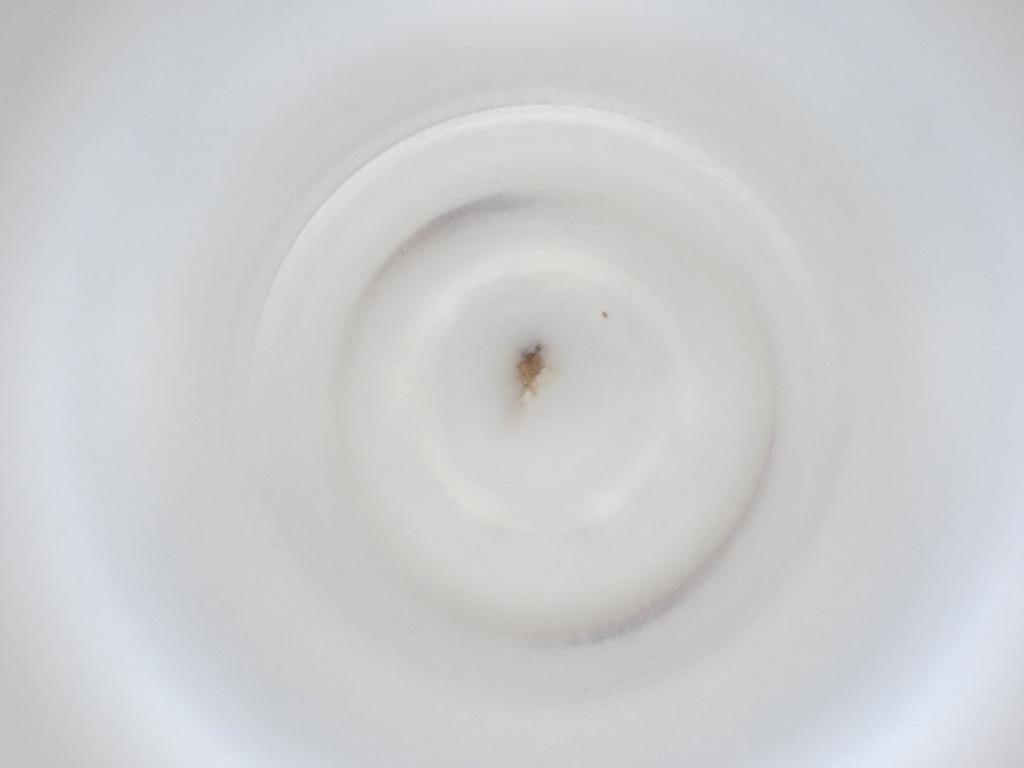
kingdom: Animalia
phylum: Arthropoda
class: Insecta
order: Diptera
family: Cecidomyiidae
